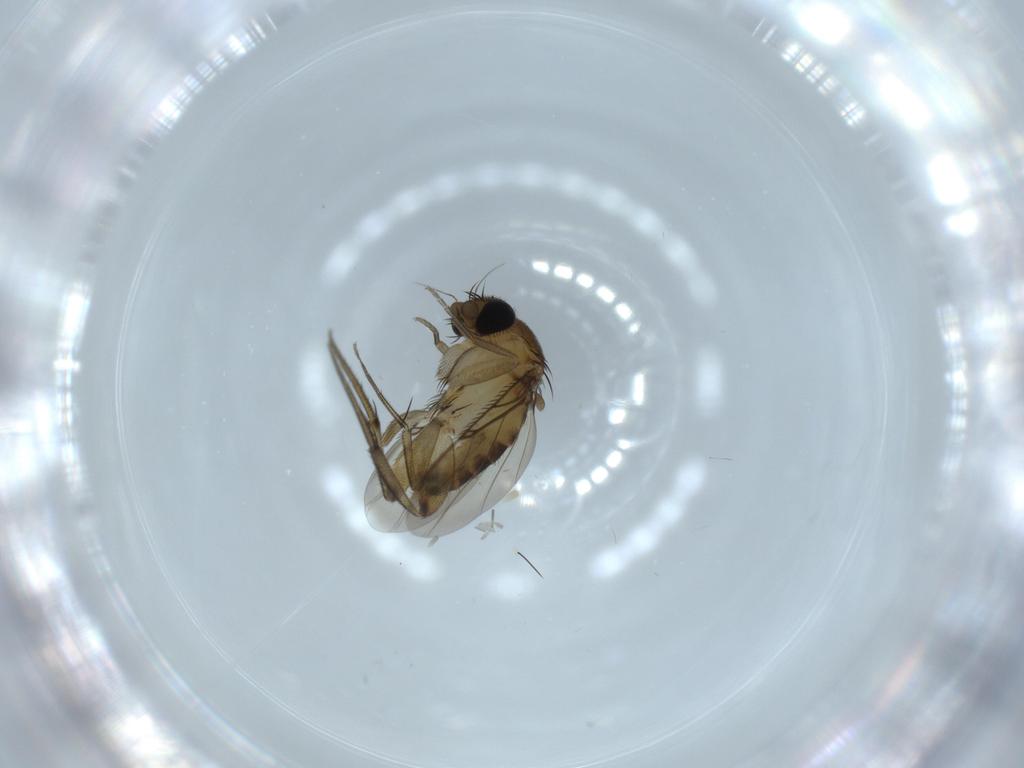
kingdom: Animalia
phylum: Arthropoda
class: Insecta
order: Diptera
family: Phoridae
